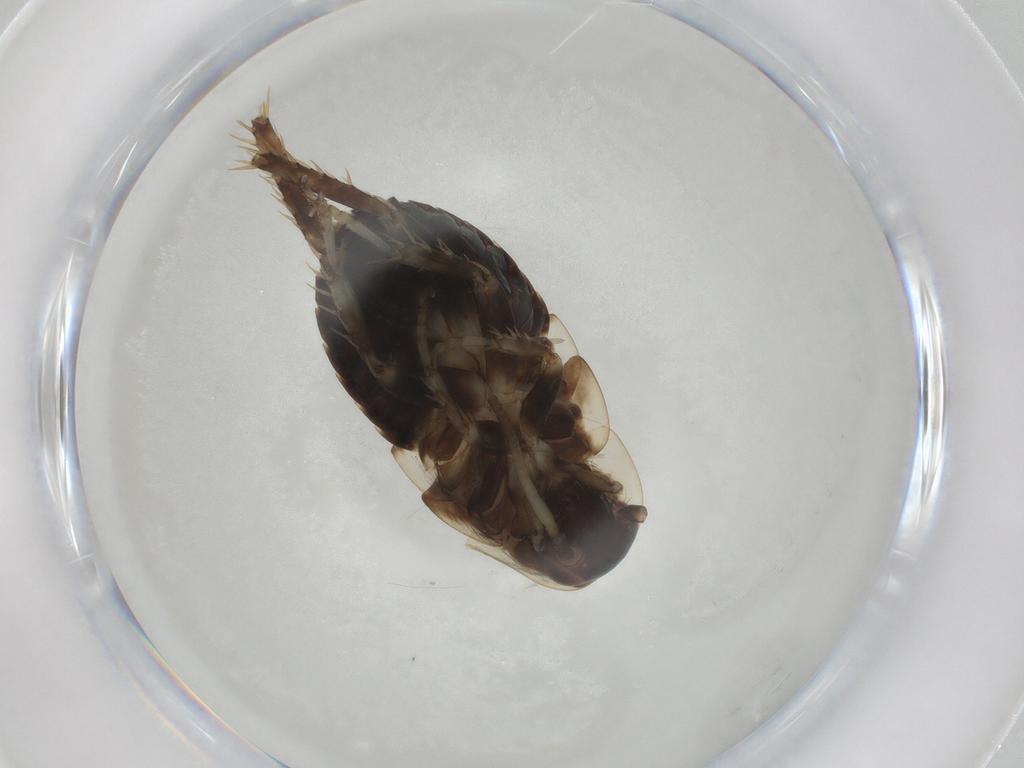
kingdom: Animalia
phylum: Arthropoda
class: Insecta
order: Blattodea
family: Ectobiidae
